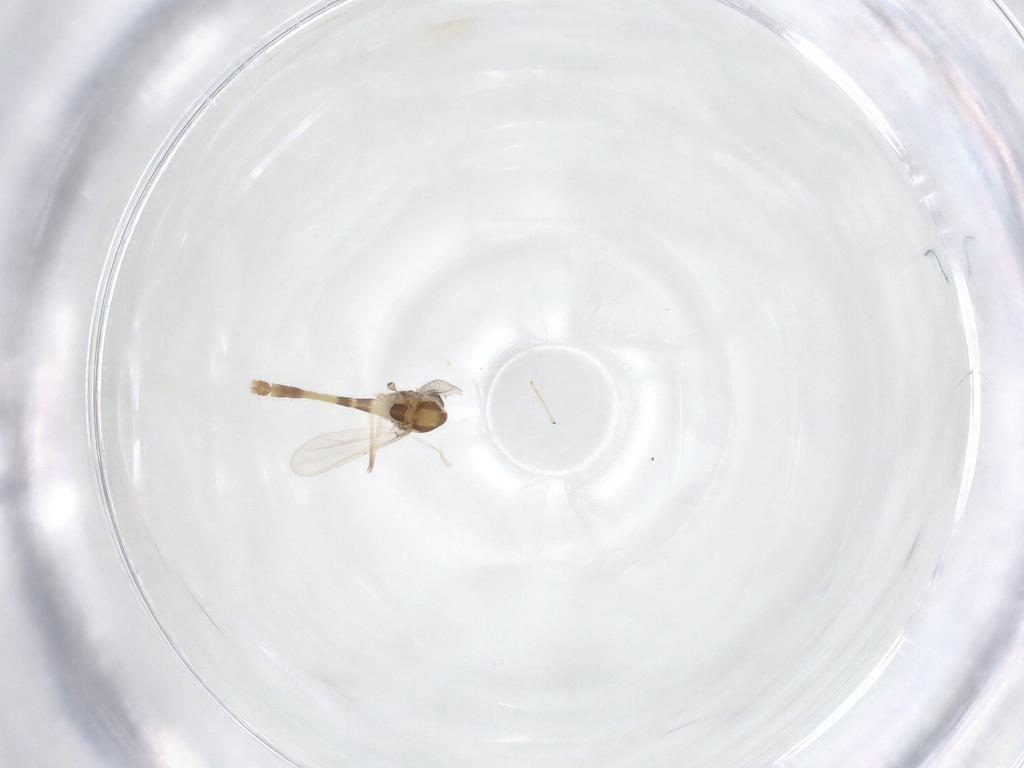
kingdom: Animalia
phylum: Arthropoda
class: Insecta
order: Diptera
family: Chironomidae
